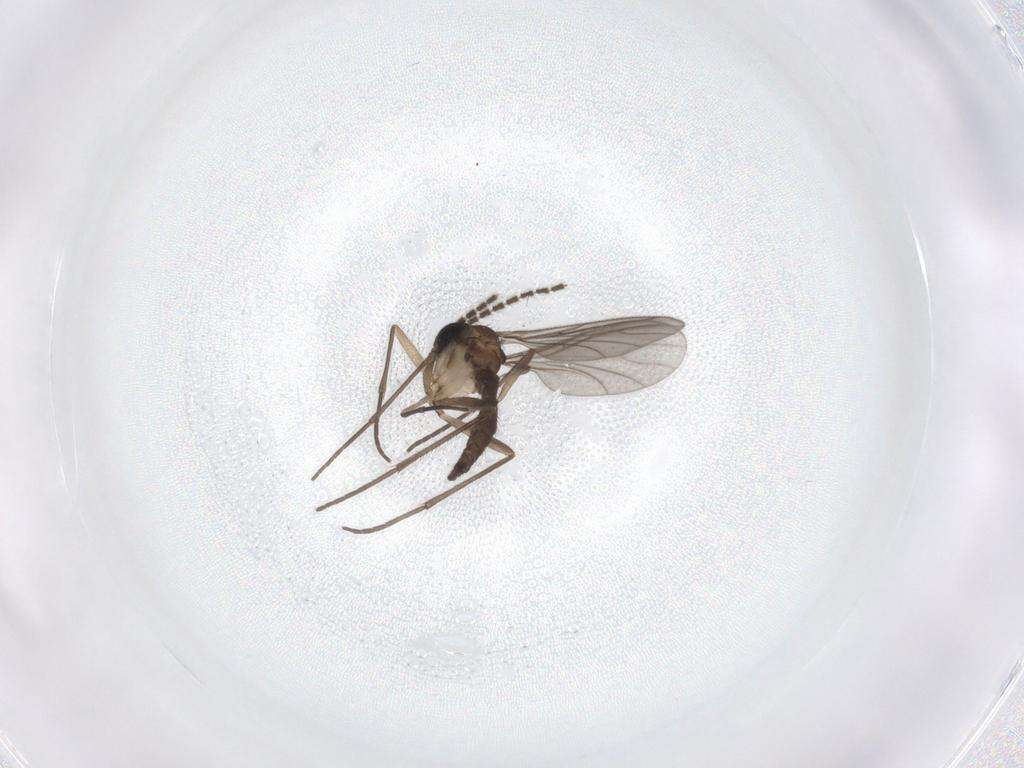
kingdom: Animalia
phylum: Arthropoda
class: Insecta
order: Diptera
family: Sciaridae
